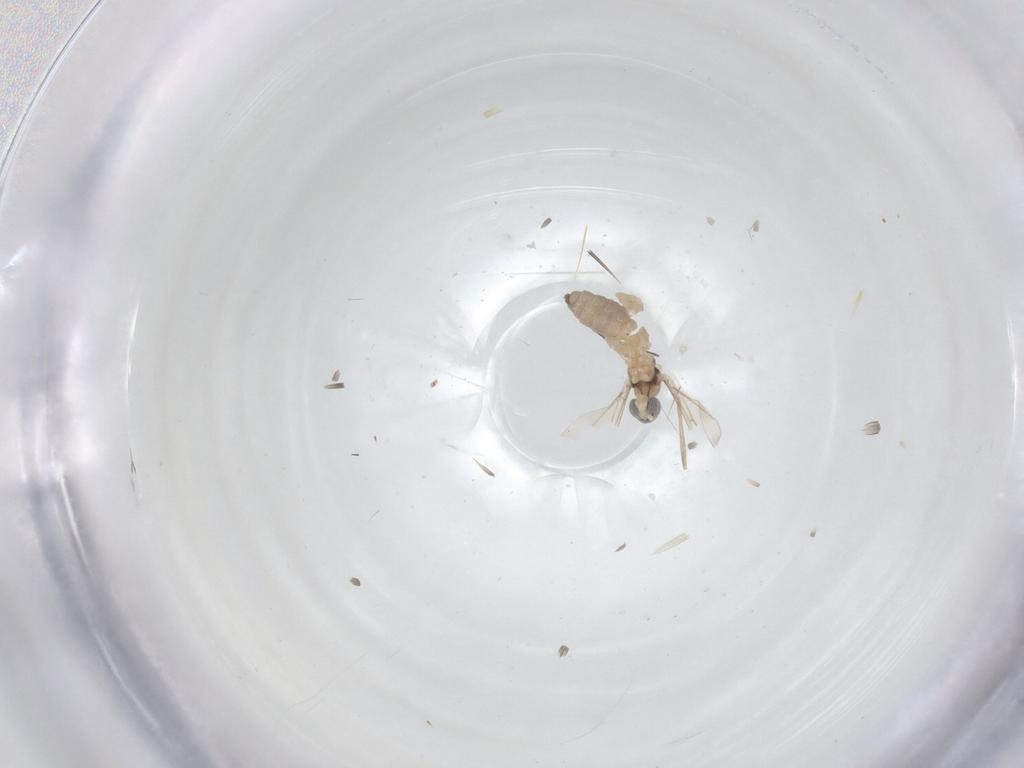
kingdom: Animalia
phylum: Arthropoda
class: Insecta
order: Diptera
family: Cecidomyiidae
